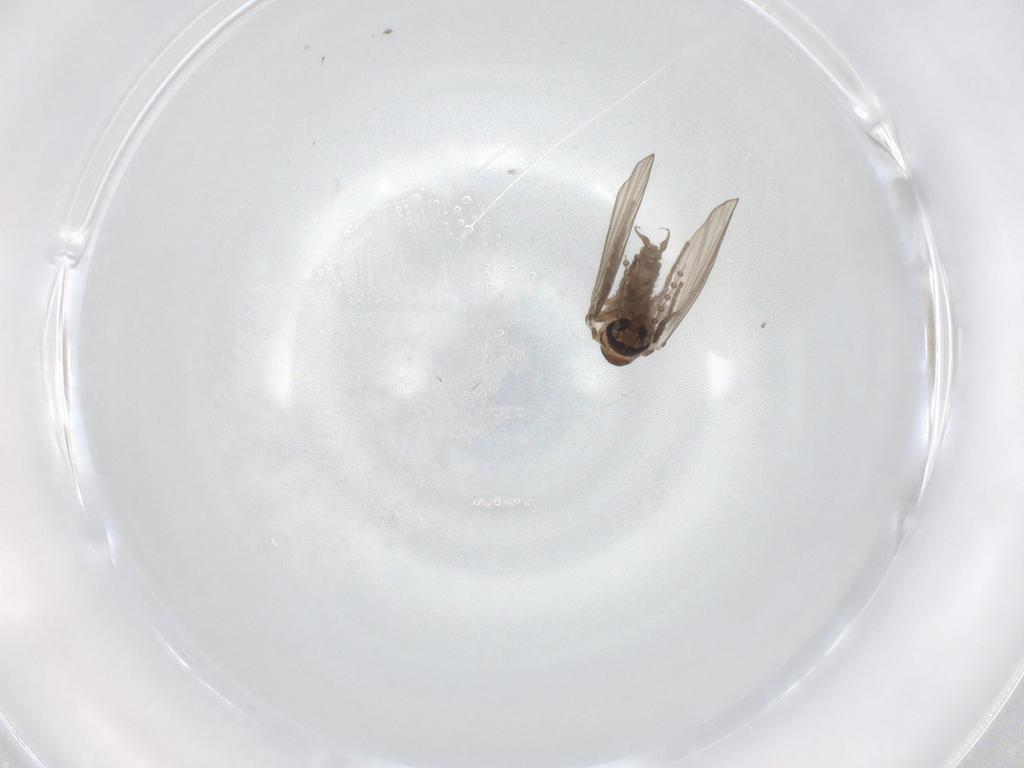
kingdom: Animalia
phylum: Arthropoda
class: Insecta
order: Diptera
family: Psychodidae
